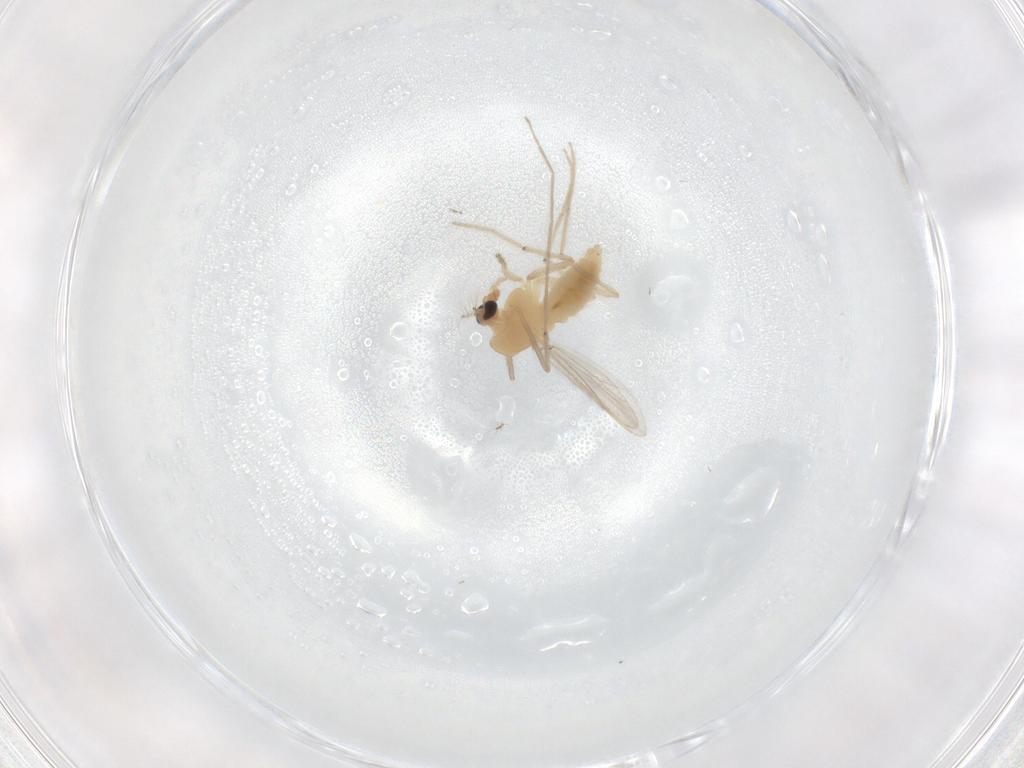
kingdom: Animalia
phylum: Arthropoda
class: Insecta
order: Diptera
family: Chironomidae
